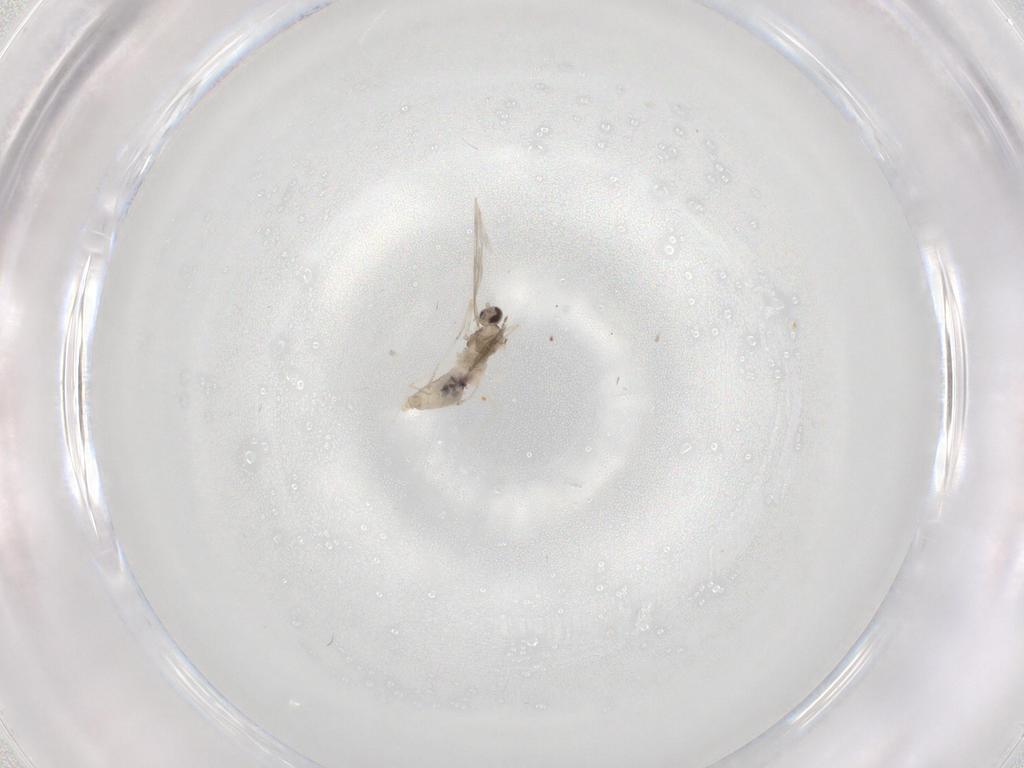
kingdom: Animalia
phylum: Arthropoda
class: Insecta
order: Diptera
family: Cecidomyiidae
